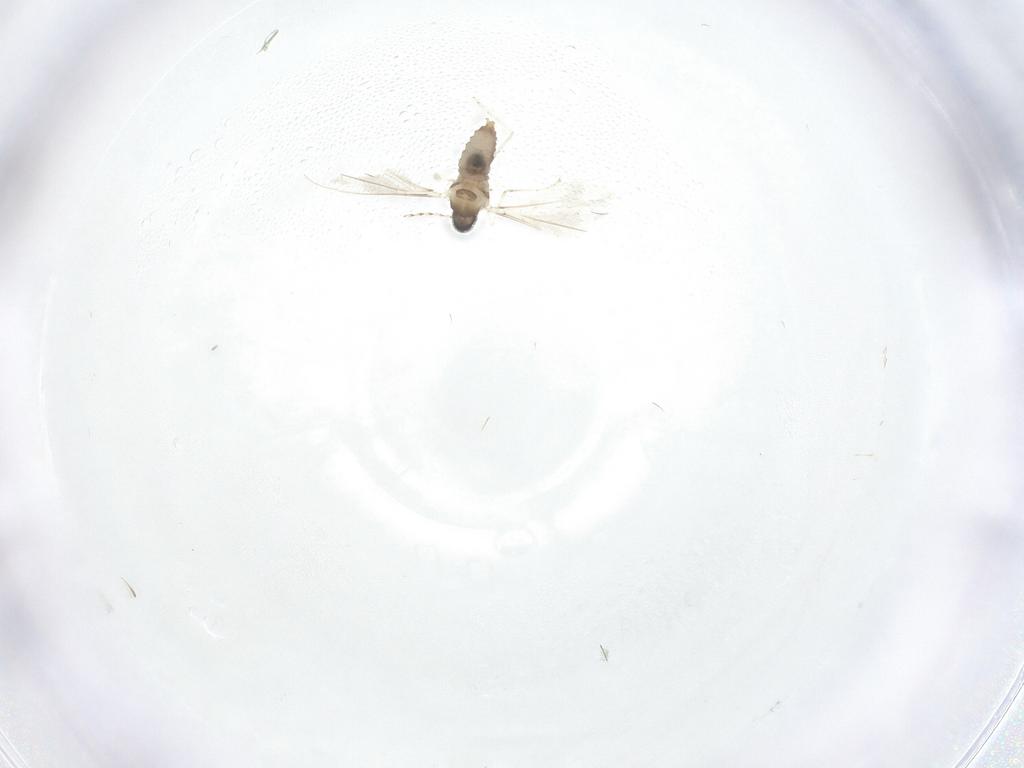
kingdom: Animalia
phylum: Arthropoda
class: Insecta
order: Diptera
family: Cecidomyiidae
